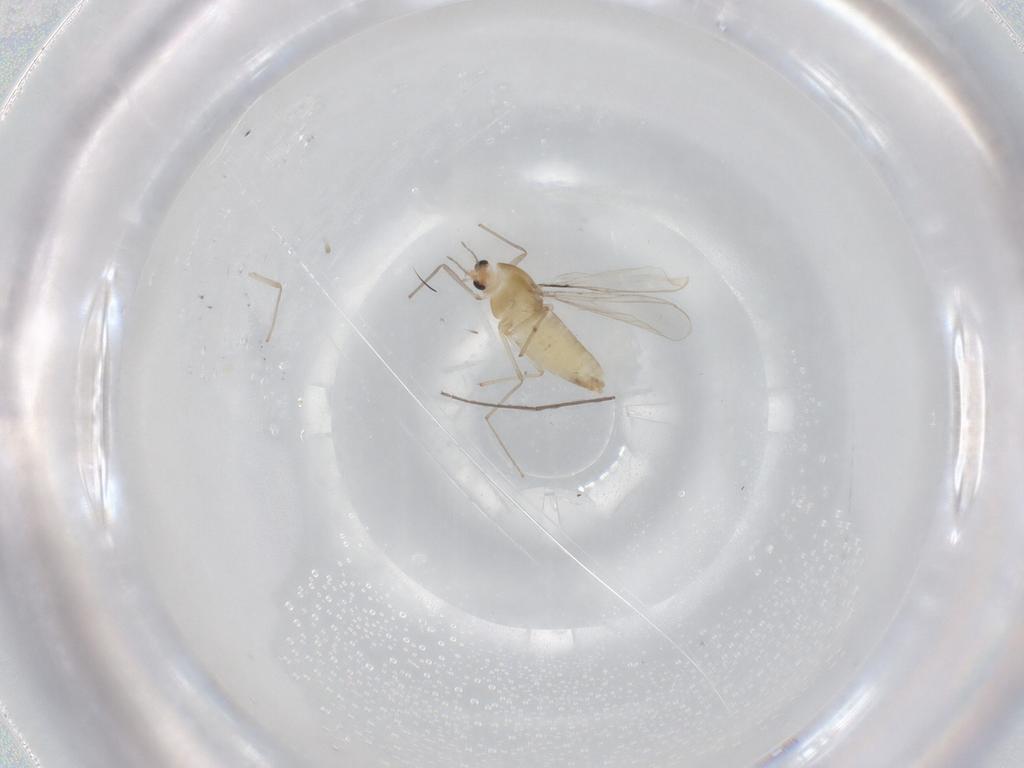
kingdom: Animalia
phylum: Arthropoda
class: Insecta
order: Diptera
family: Chironomidae
